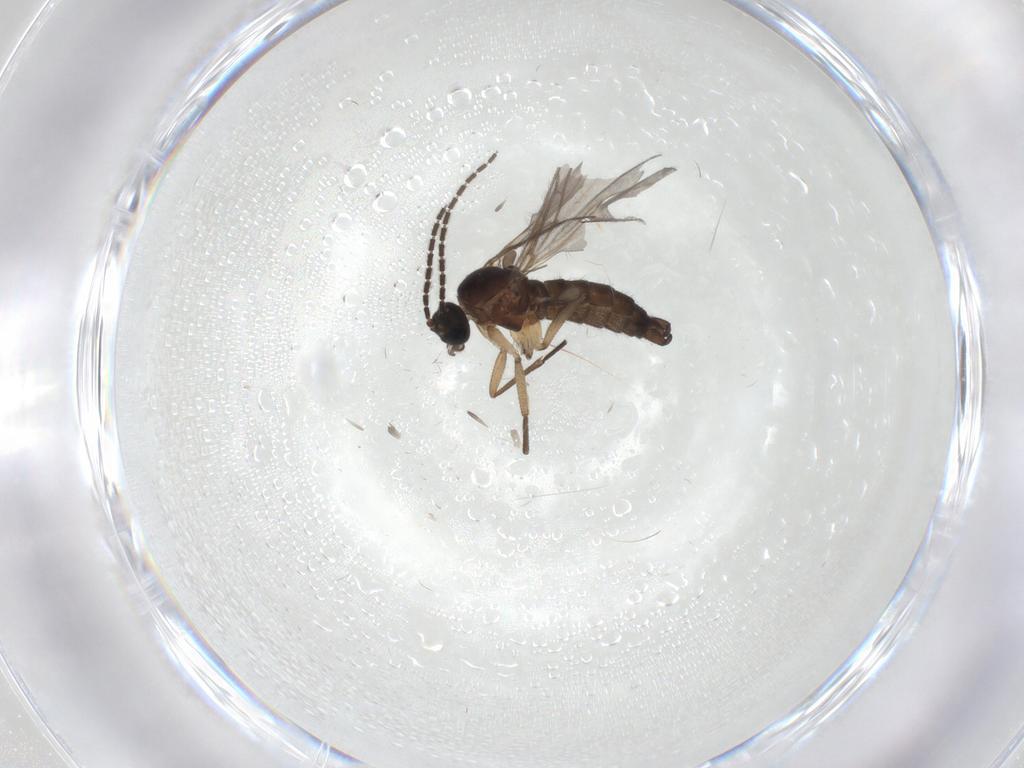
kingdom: Animalia
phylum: Arthropoda
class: Insecta
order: Diptera
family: Sciaridae
